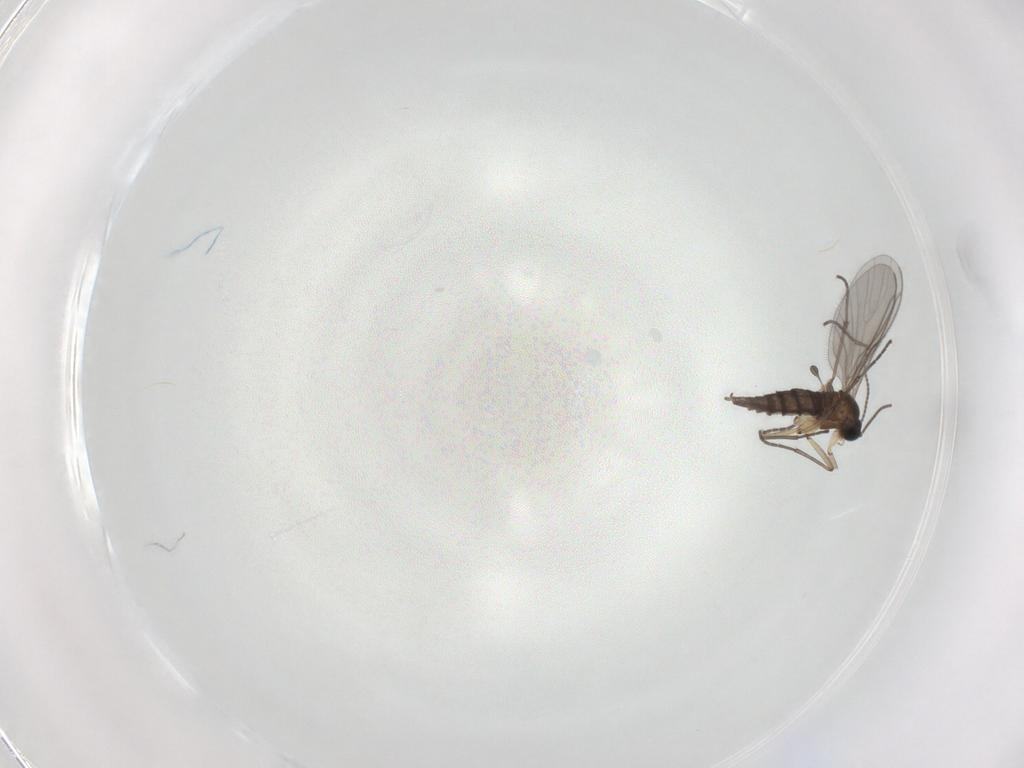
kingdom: Animalia
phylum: Arthropoda
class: Insecta
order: Diptera
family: Sciaridae
